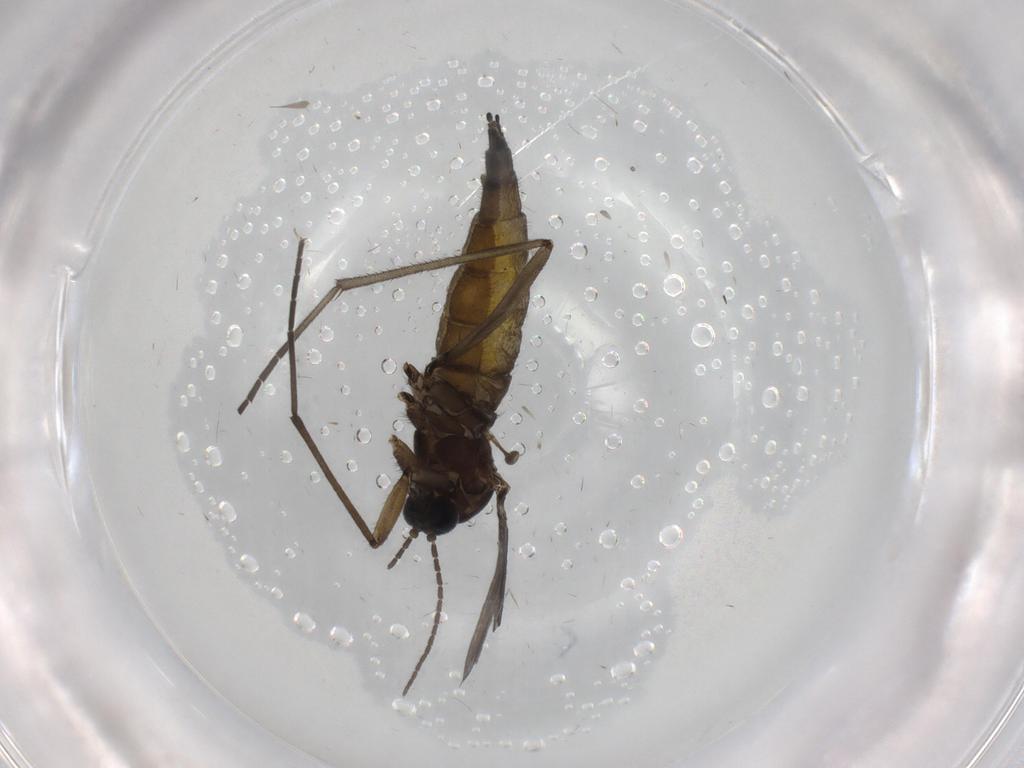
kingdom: Animalia
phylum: Arthropoda
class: Insecta
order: Diptera
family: Sciaridae
